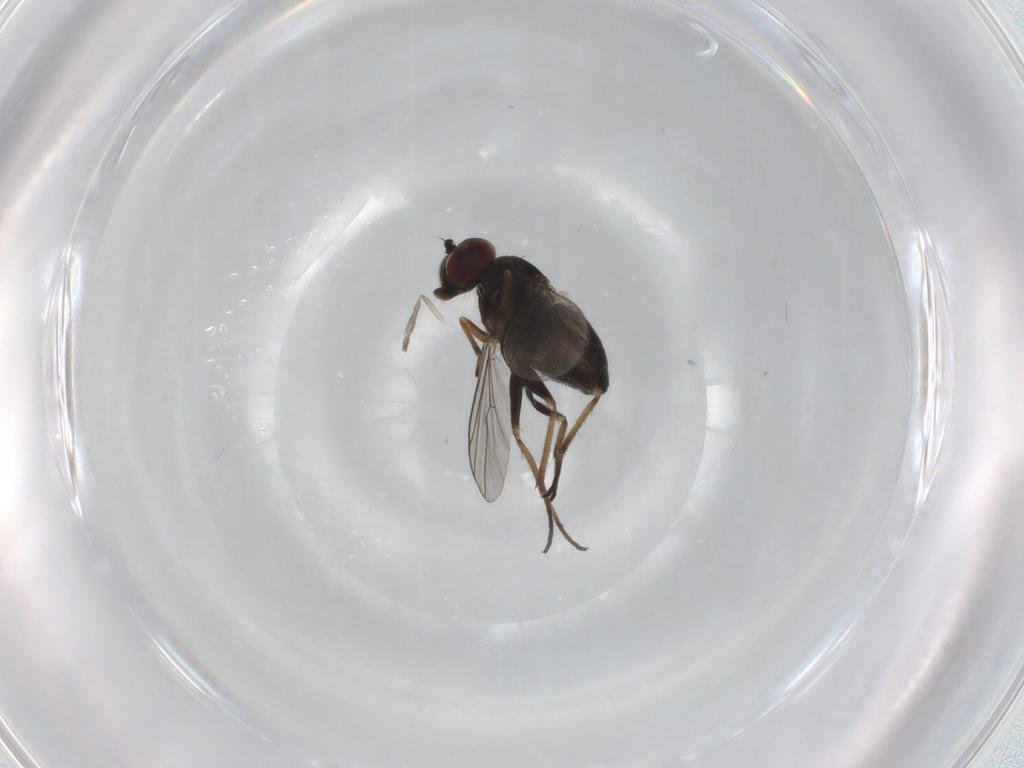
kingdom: Animalia
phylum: Arthropoda
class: Insecta
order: Diptera
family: Dolichopodidae
